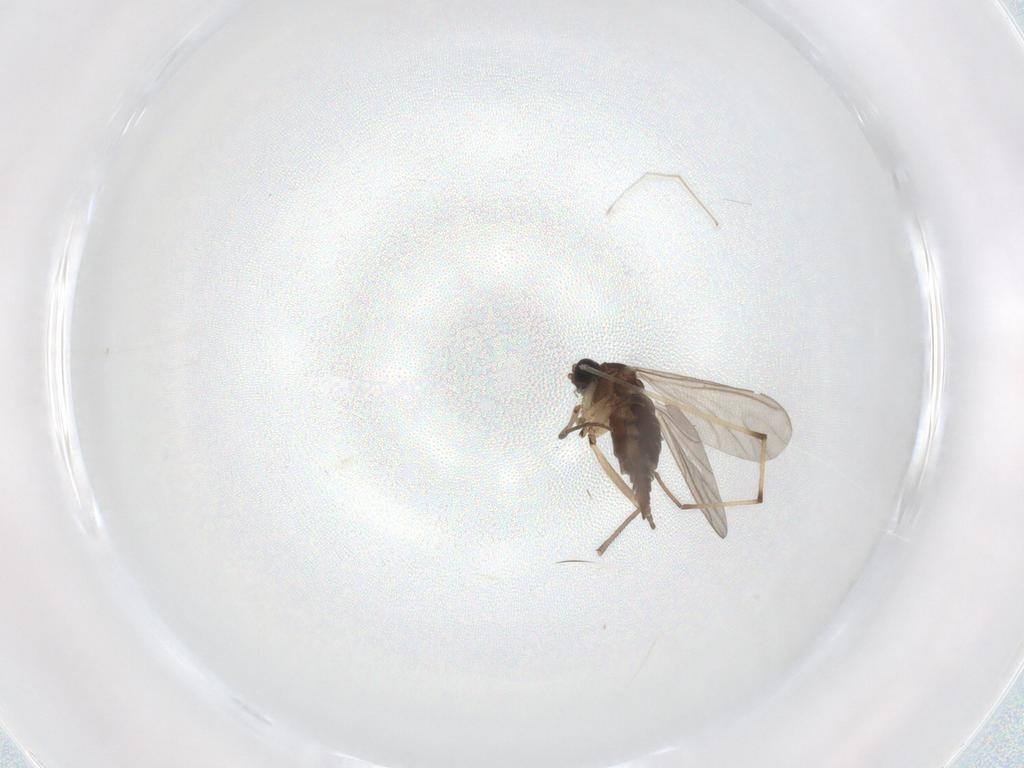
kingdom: Animalia
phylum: Arthropoda
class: Insecta
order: Diptera
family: Sciaridae
